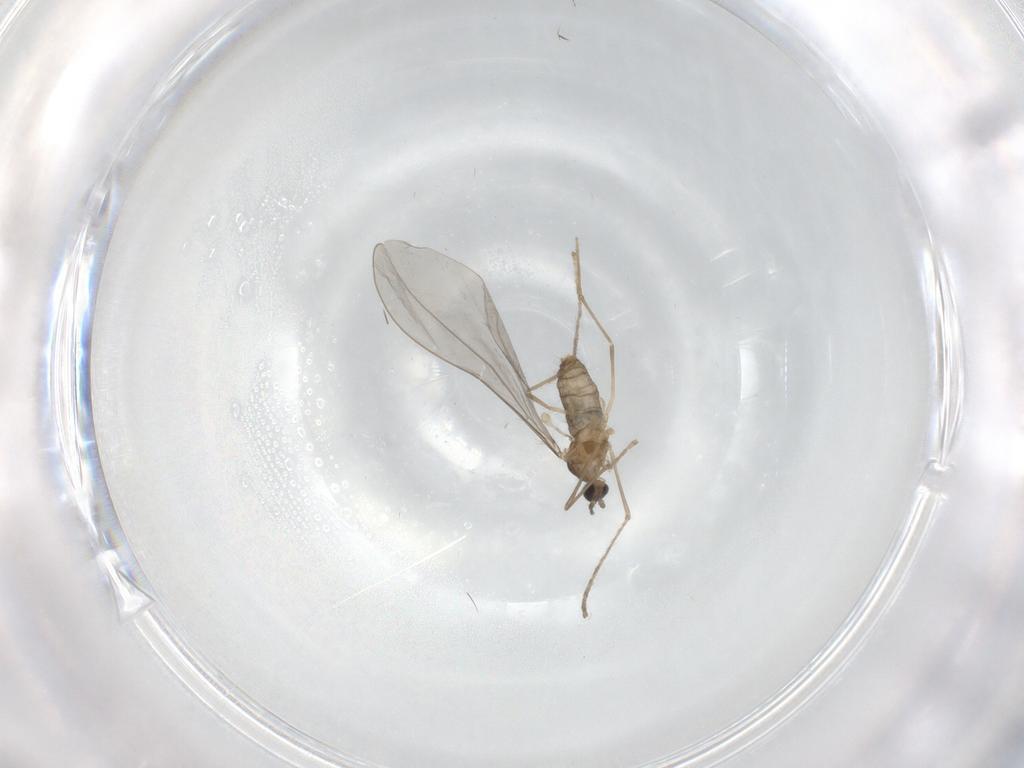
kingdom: Animalia
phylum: Arthropoda
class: Insecta
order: Diptera
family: Cecidomyiidae
